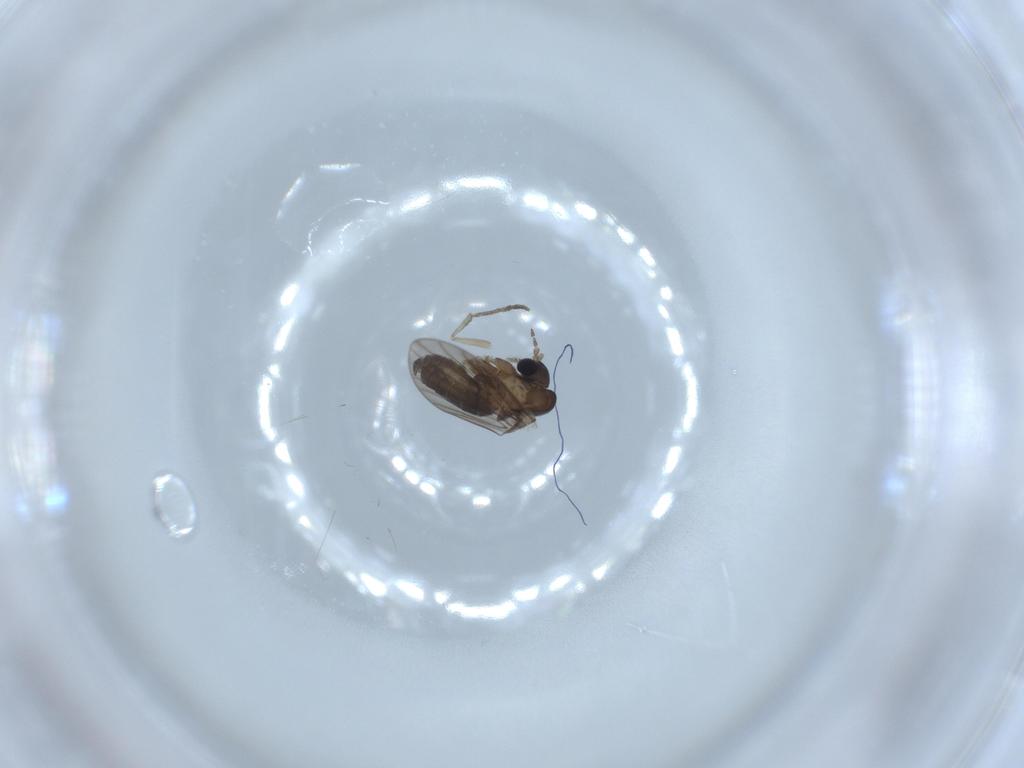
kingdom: Animalia
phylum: Arthropoda
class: Insecta
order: Diptera
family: Psychodidae
